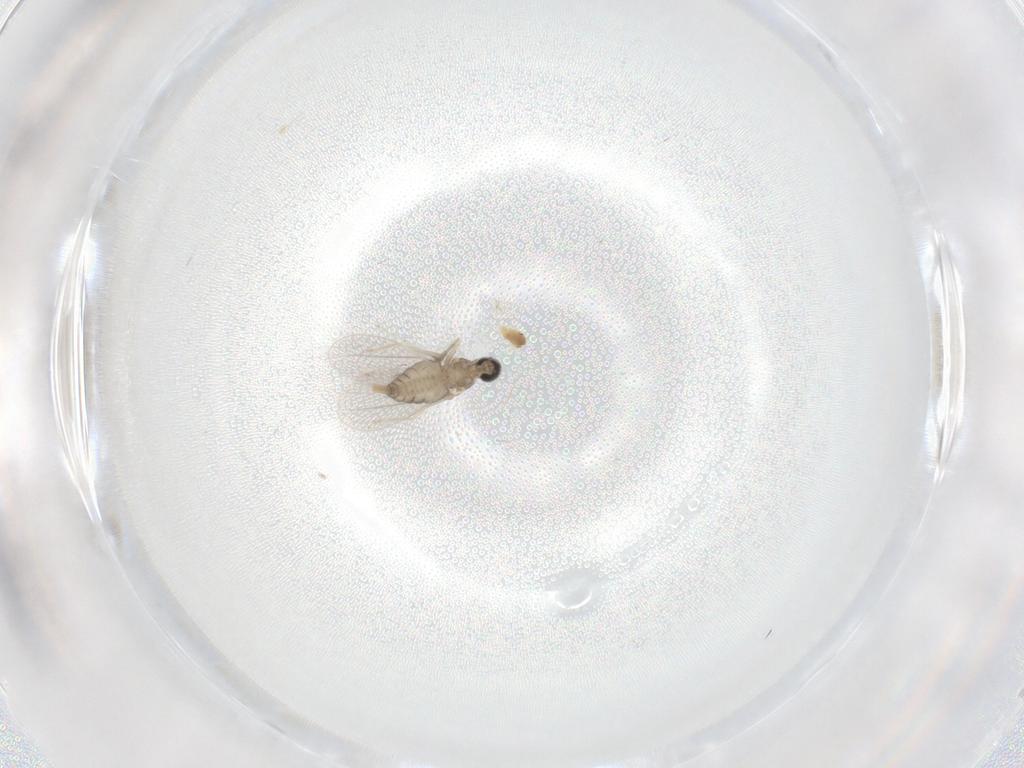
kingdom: Animalia
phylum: Arthropoda
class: Insecta
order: Diptera
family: Cecidomyiidae
